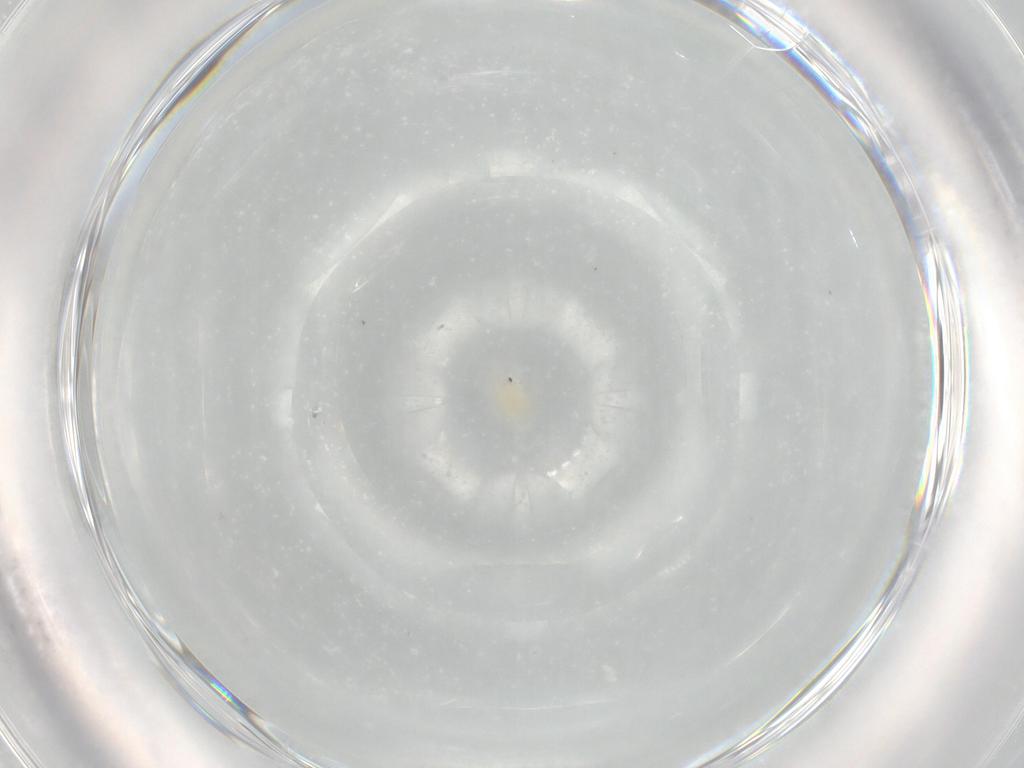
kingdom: Animalia
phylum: Arthropoda
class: Arachnida
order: Trombidiformes
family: Tetranychidae
